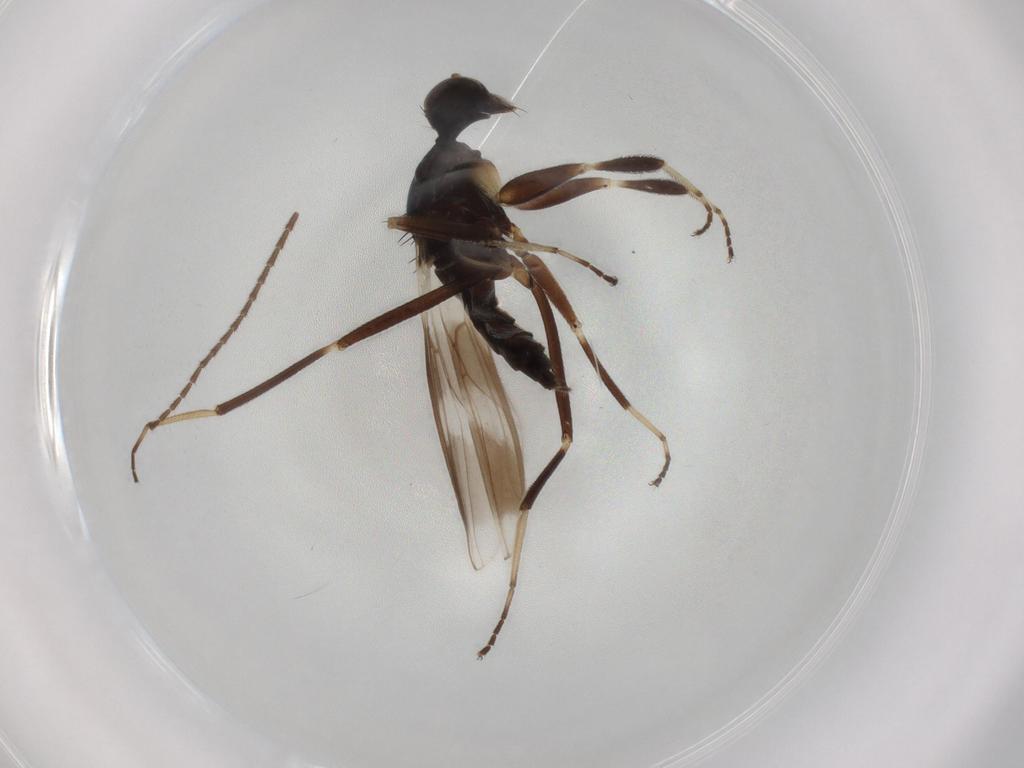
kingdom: Animalia
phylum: Arthropoda
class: Insecta
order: Diptera
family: Hybotidae
